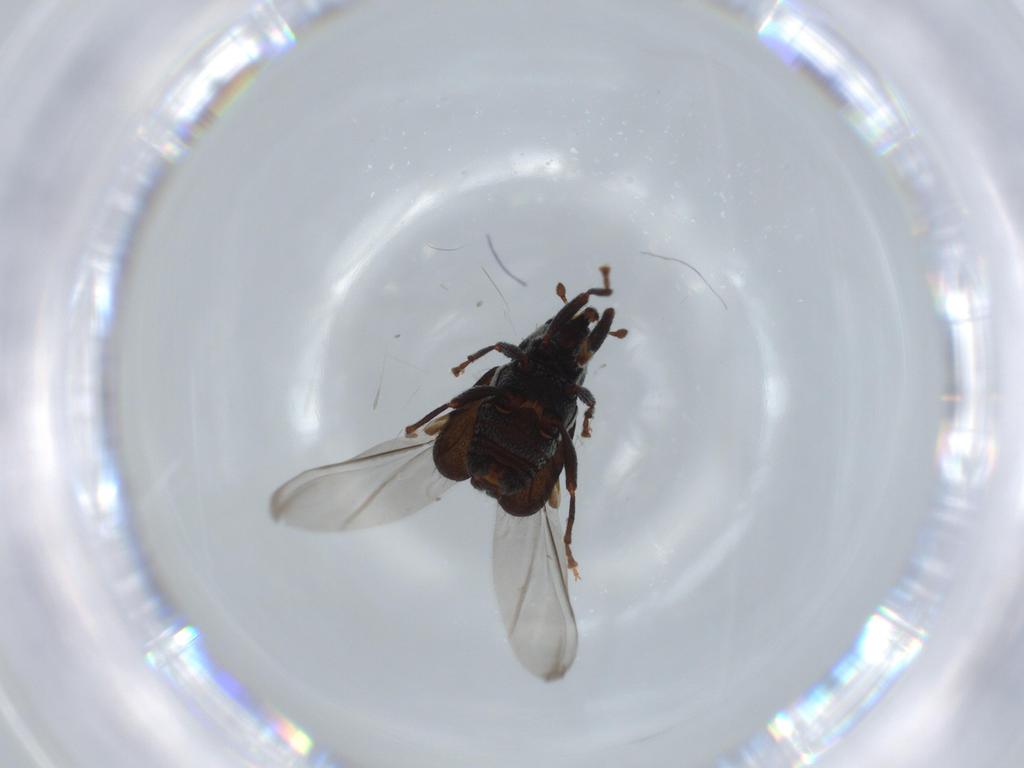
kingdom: Animalia
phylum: Arthropoda
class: Insecta
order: Coleoptera
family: Curculionidae
